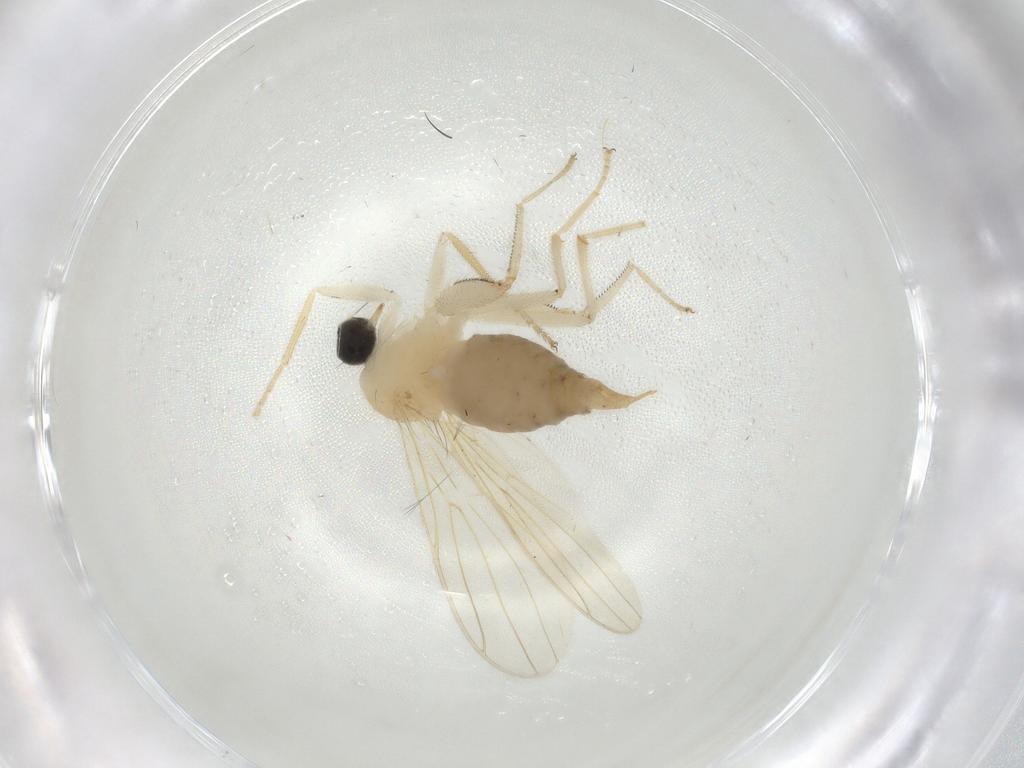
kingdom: Animalia
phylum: Arthropoda
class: Insecta
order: Diptera
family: Hybotidae
